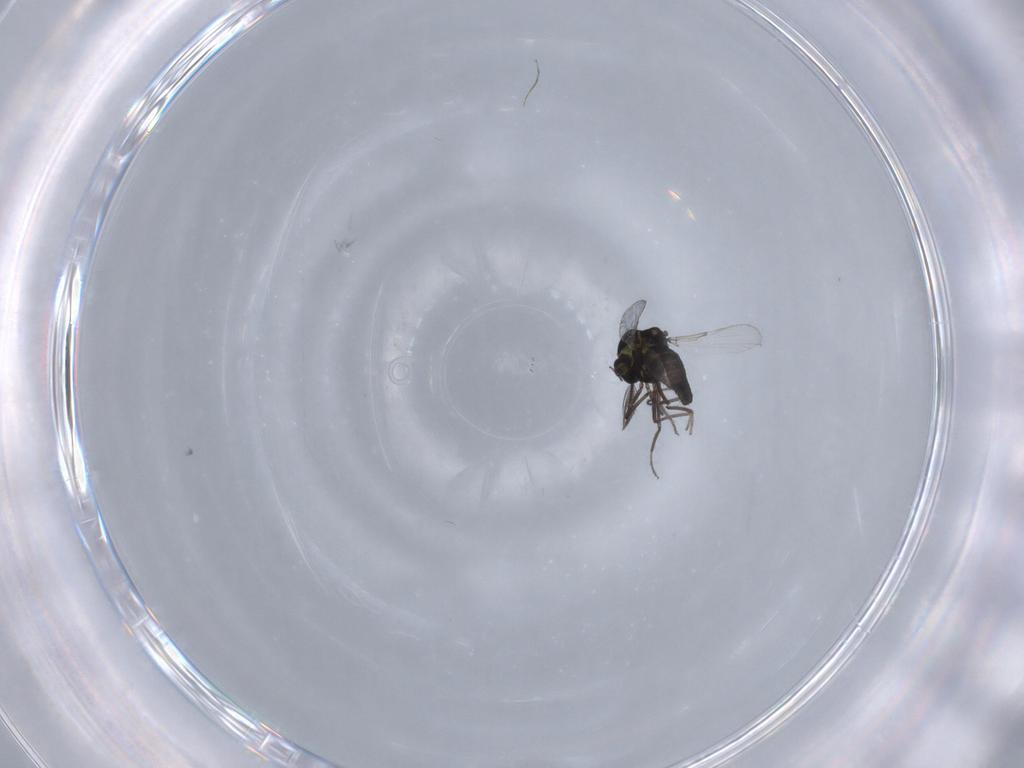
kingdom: Animalia
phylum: Arthropoda
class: Insecta
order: Diptera
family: Ceratopogonidae
